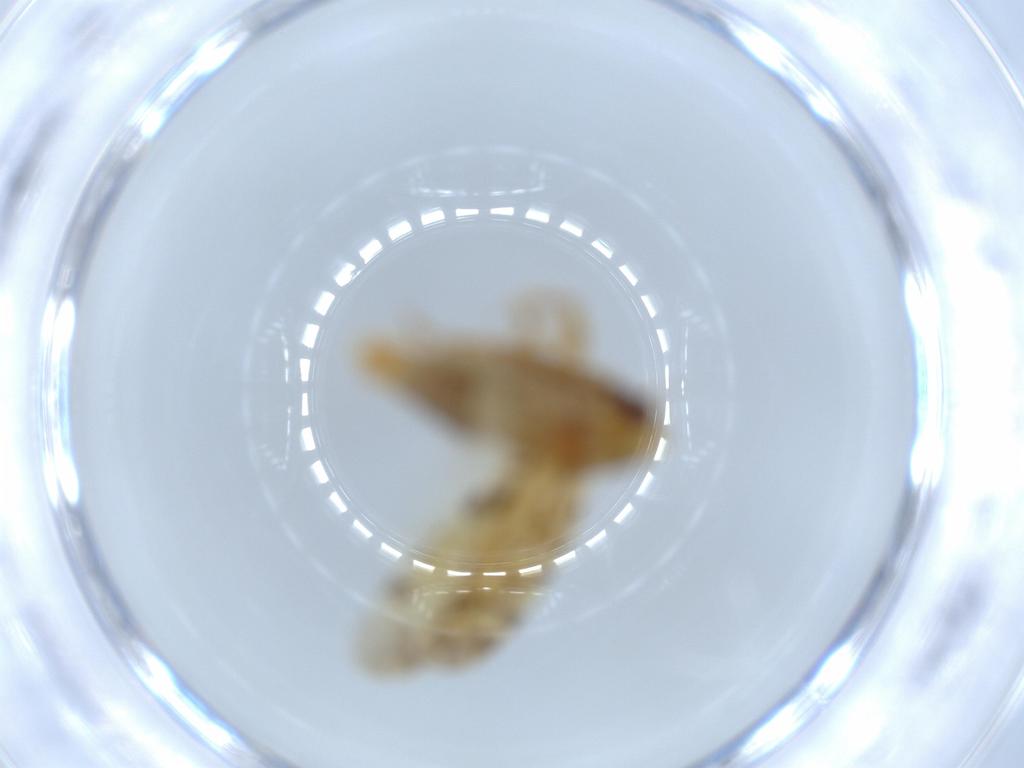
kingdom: Animalia
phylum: Arthropoda
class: Insecta
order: Hemiptera
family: Cicadellidae
